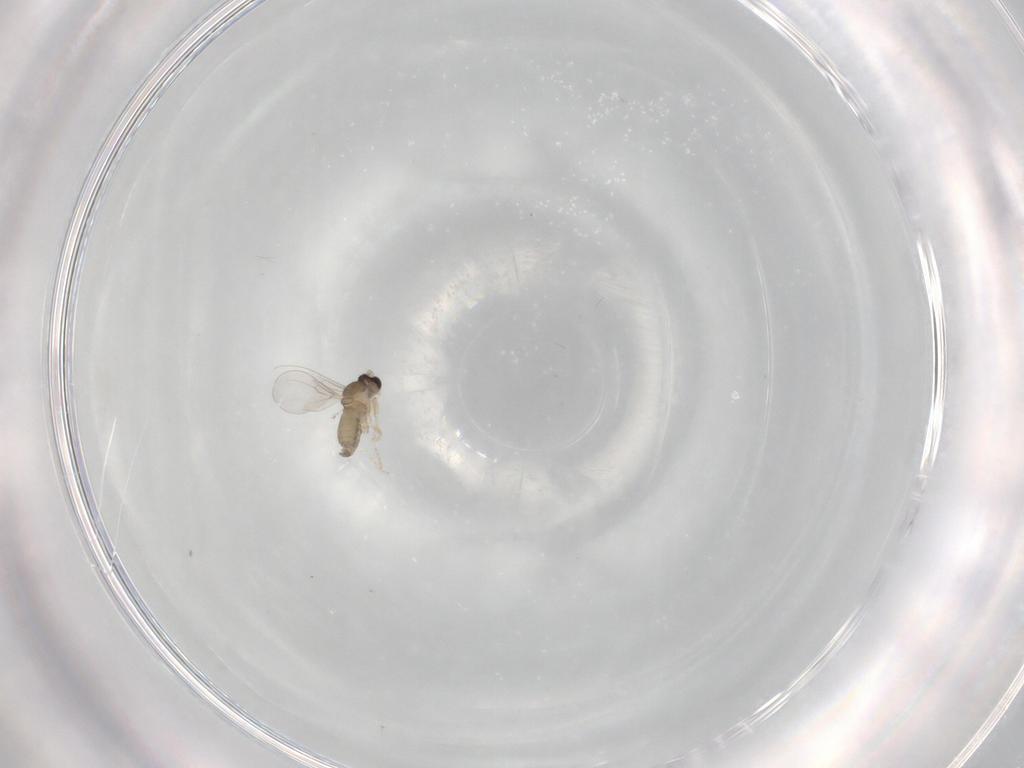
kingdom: Animalia
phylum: Arthropoda
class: Insecta
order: Diptera
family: Cecidomyiidae
